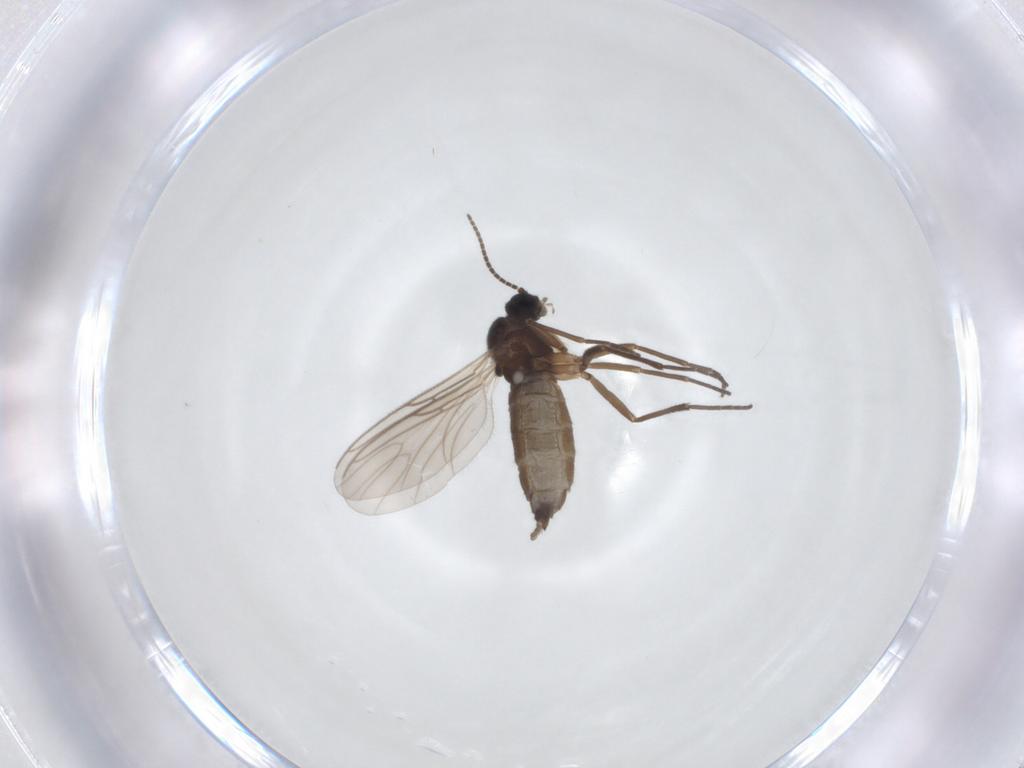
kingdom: Animalia
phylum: Arthropoda
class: Insecta
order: Diptera
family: Sciaridae
